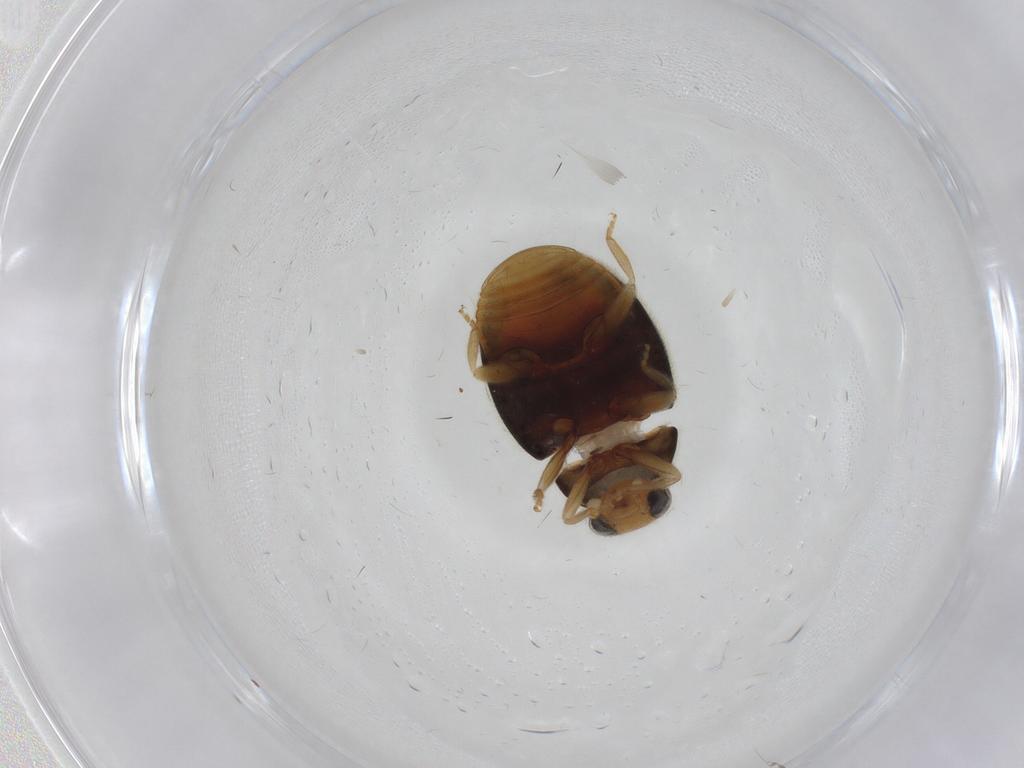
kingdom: Animalia
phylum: Arthropoda
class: Insecta
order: Coleoptera
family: Coccinellidae
